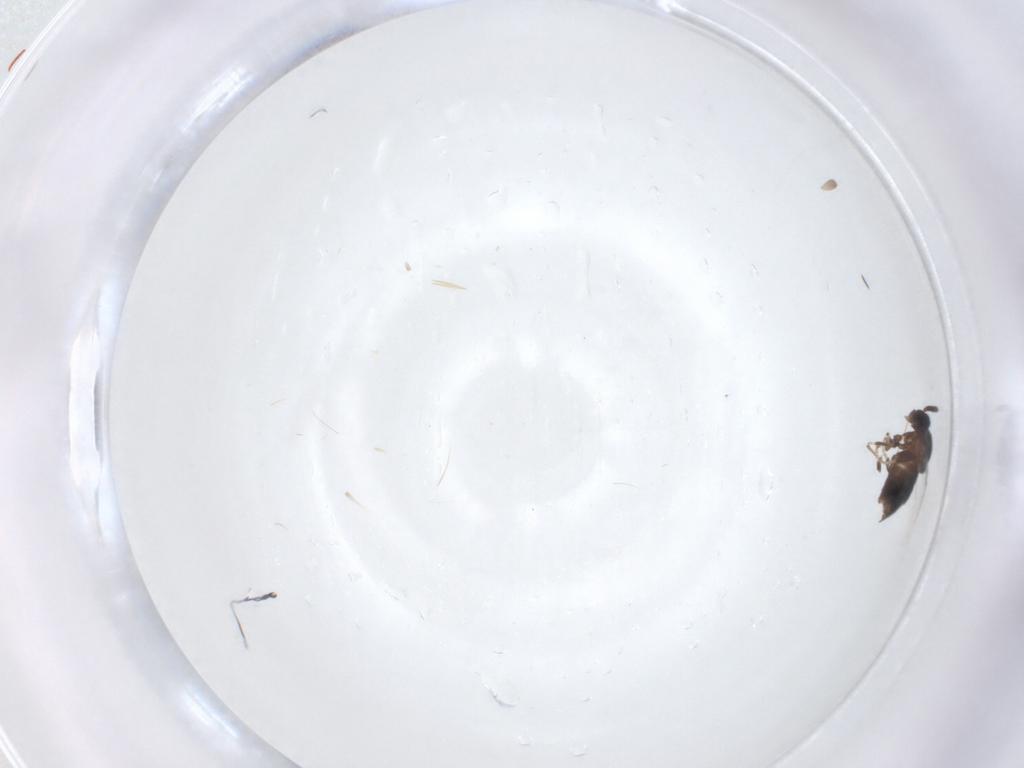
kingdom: Animalia
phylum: Arthropoda
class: Insecta
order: Diptera
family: Scatopsidae
